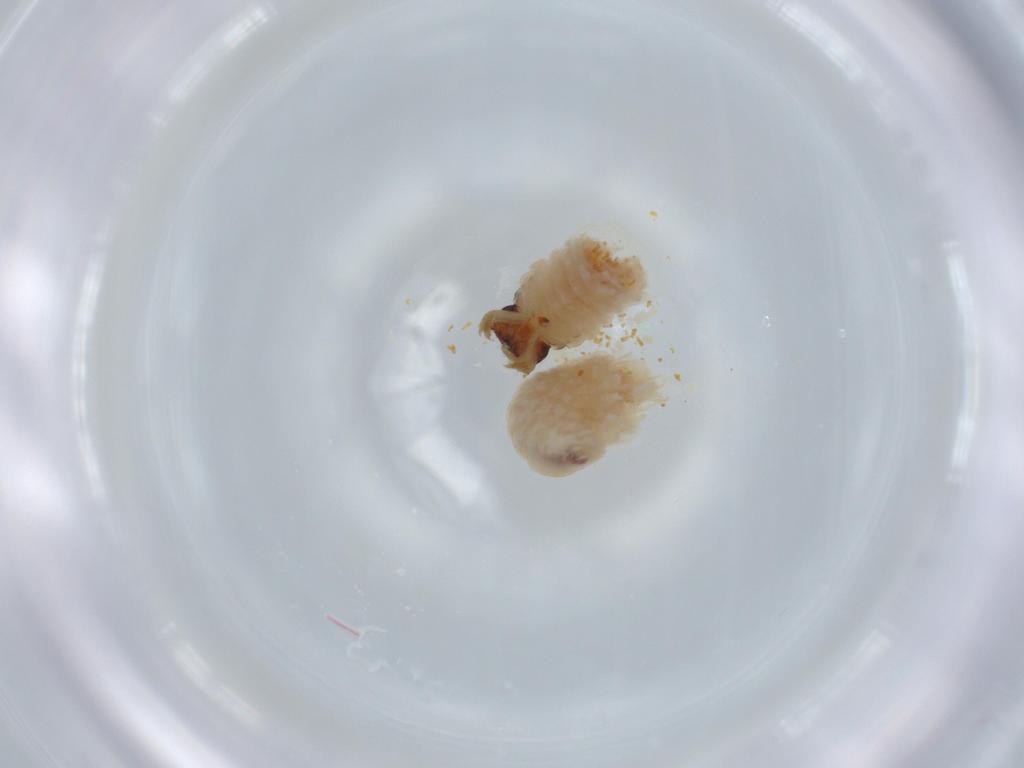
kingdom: Animalia
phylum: Arthropoda
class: Insecta
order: Coleoptera
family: Chrysomelidae
